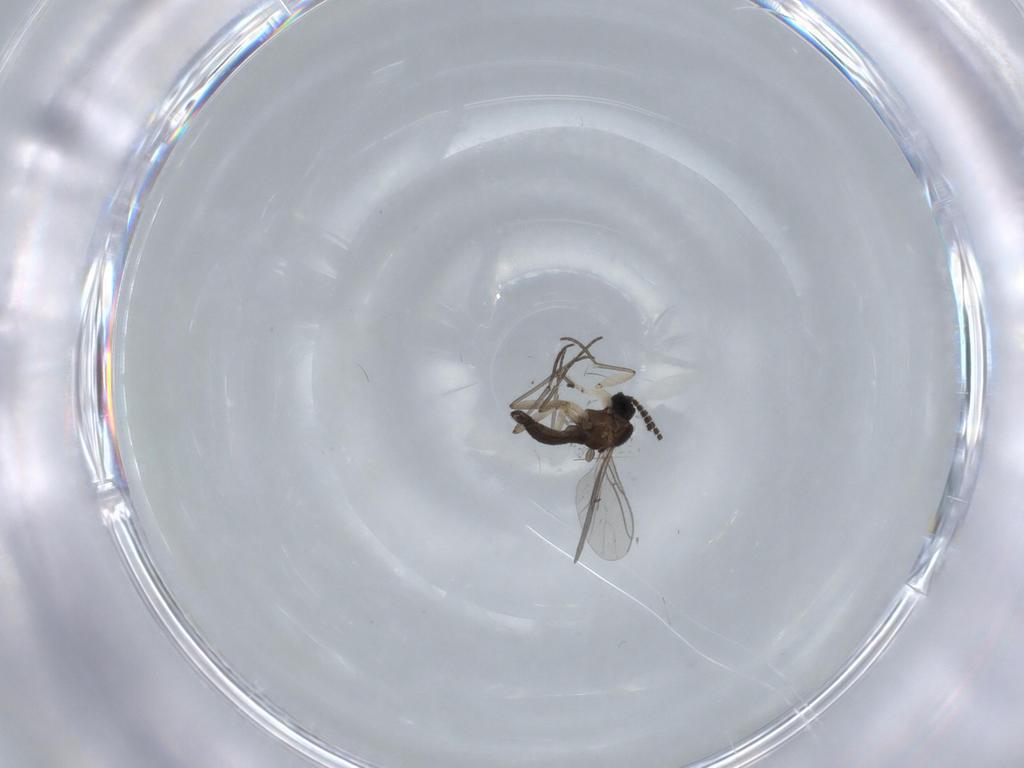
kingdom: Animalia
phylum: Arthropoda
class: Insecta
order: Diptera
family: Sciaridae
